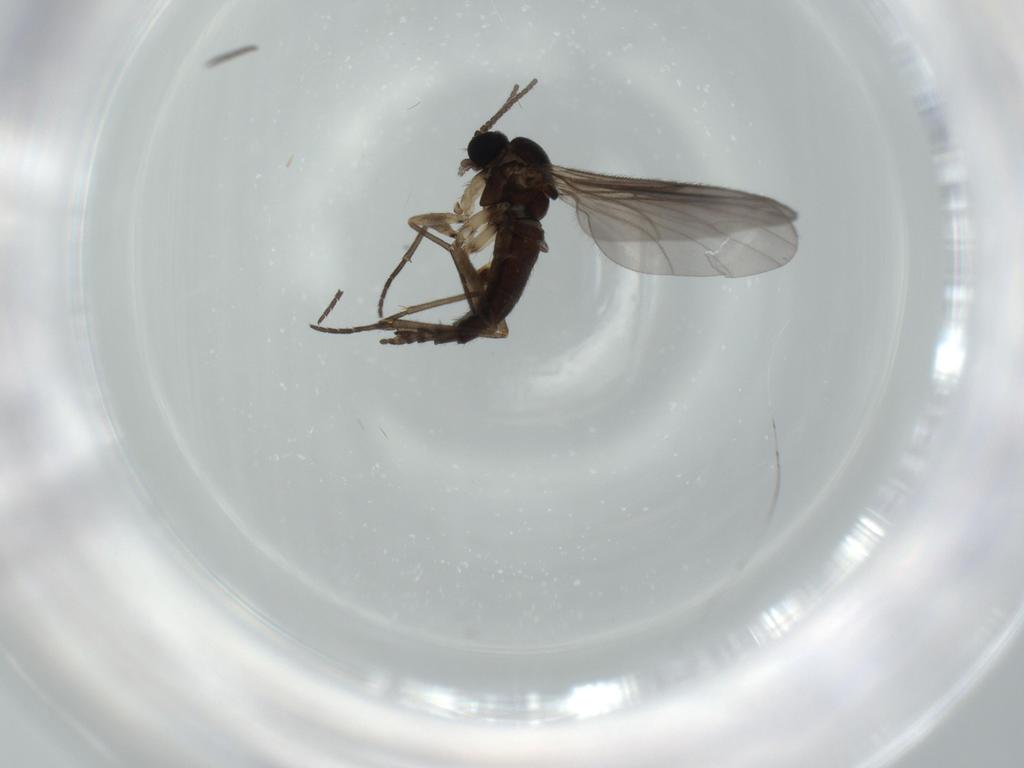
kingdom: Animalia
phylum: Arthropoda
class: Insecta
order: Diptera
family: Sciaridae
